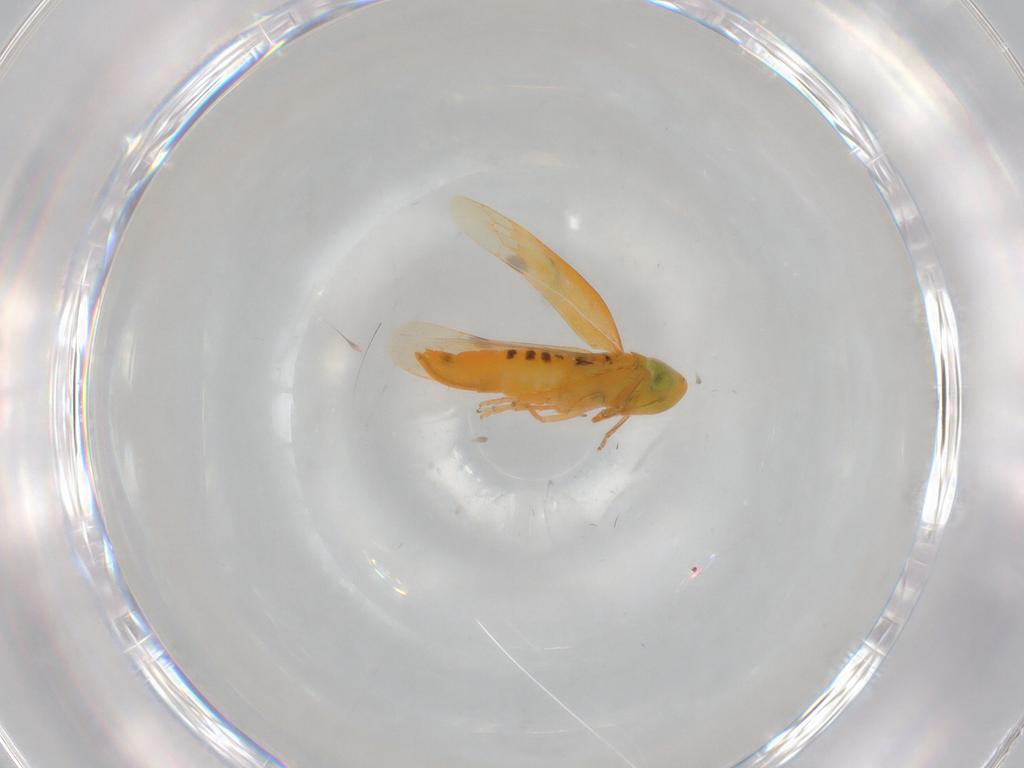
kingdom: Animalia
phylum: Arthropoda
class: Insecta
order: Hemiptera
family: Cicadellidae
